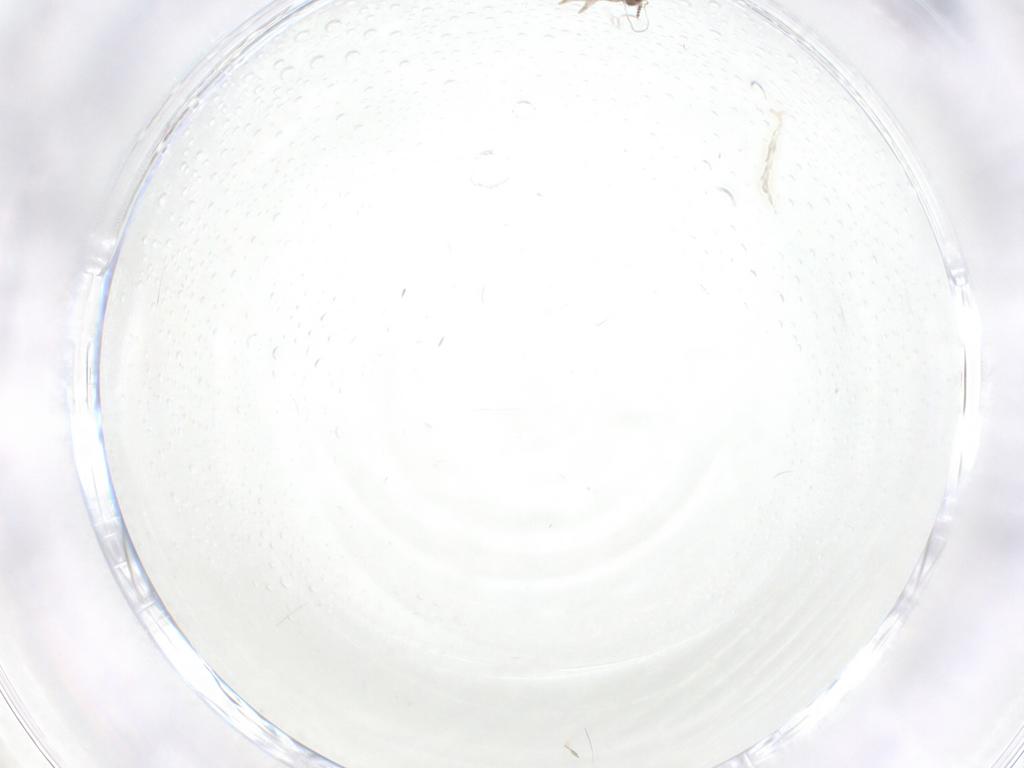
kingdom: Animalia
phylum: Arthropoda
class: Insecta
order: Diptera
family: Cecidomyiidae
